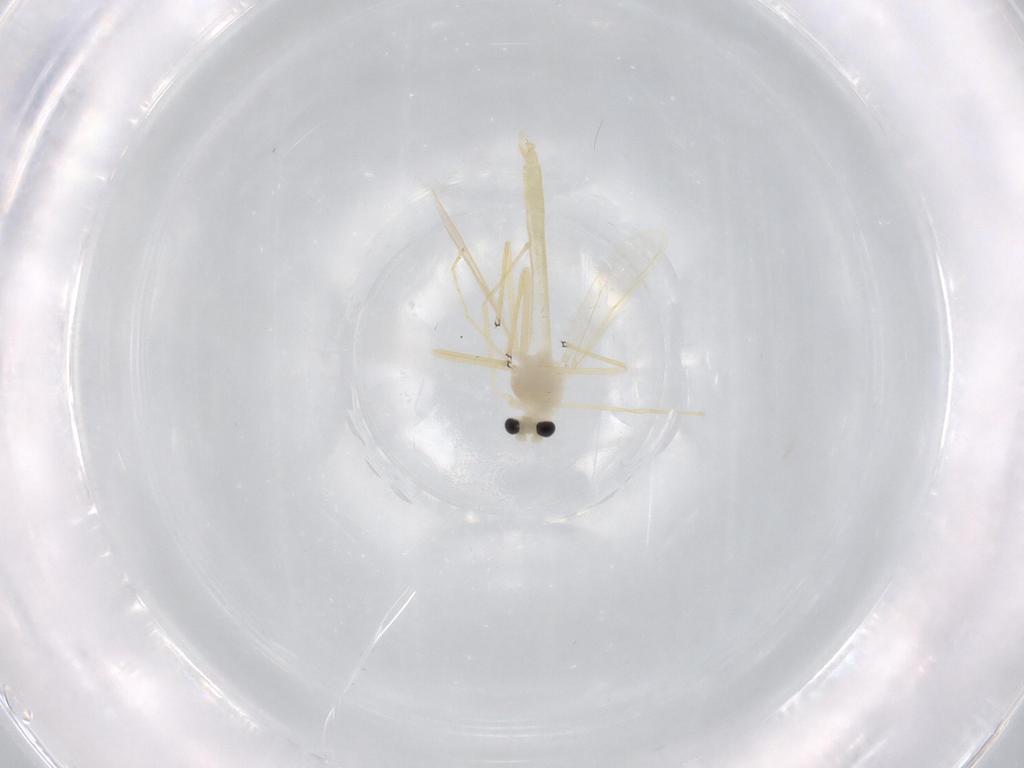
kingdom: Animalia
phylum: Arthropoda
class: Insecta
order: Diptera
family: Chironomidae
